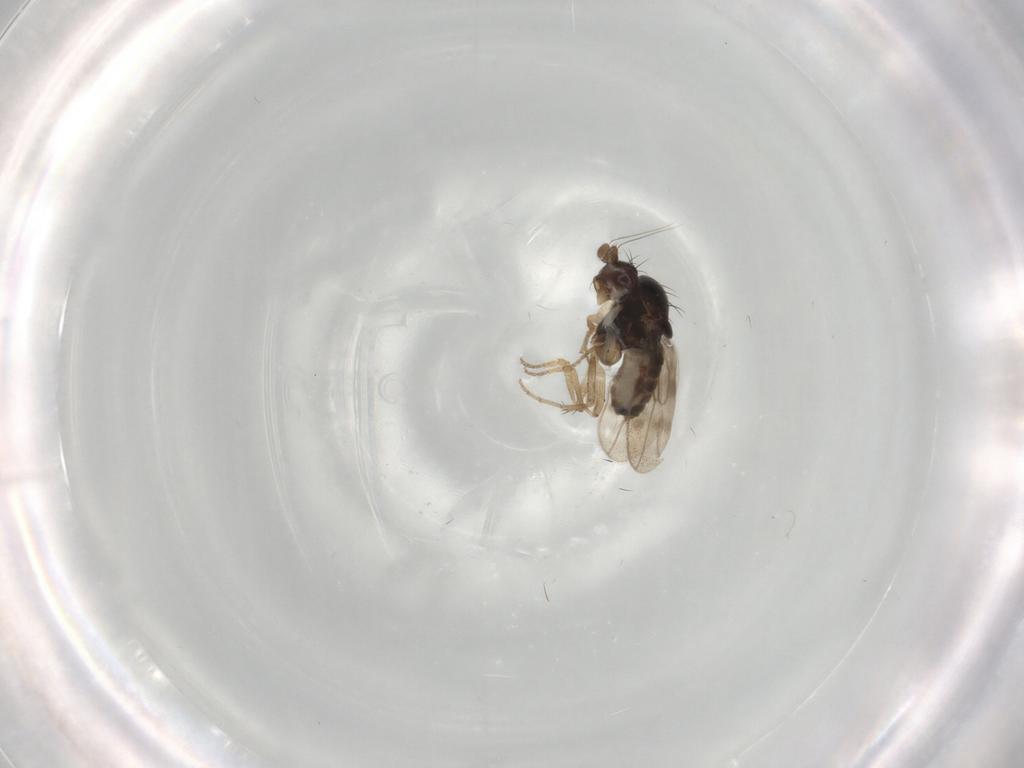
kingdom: Animalia
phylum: Arthropoda
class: Insecta
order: Diptera
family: Sphaeroceridae
